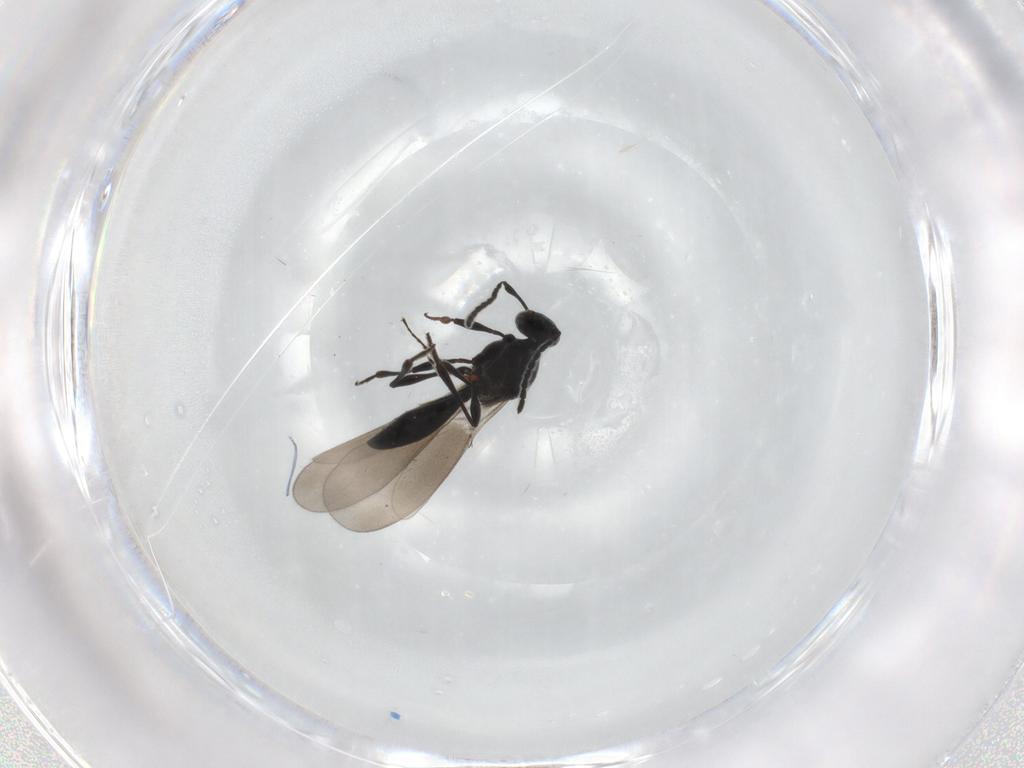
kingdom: Animalia
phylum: Arthropoda
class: Insecta
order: Hymenoptera
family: Platygastridae
